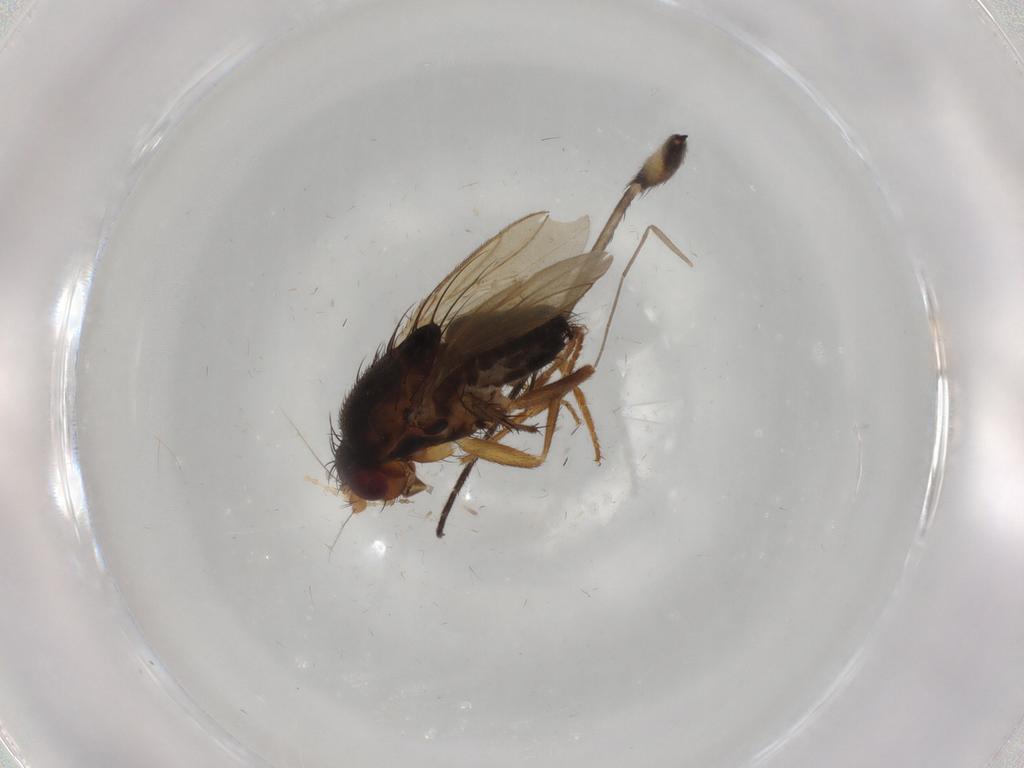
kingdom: Animalia
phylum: Arthropoda
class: Insecta
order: Diptera
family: Sphaeroceridae
